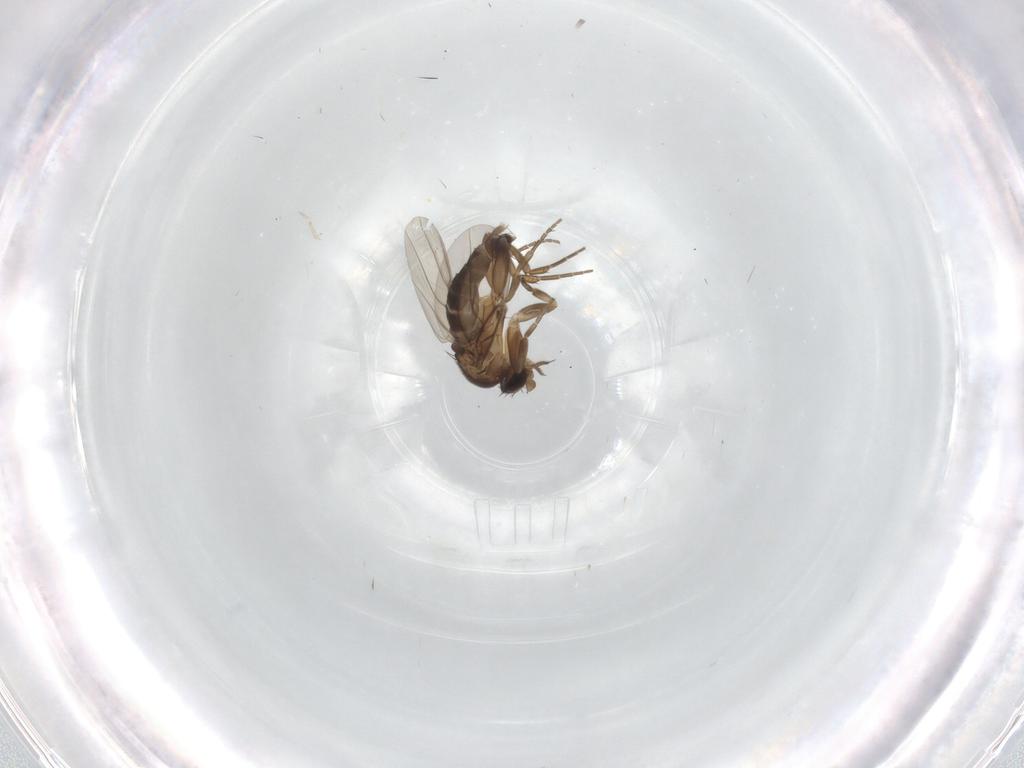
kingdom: Animalia
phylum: Arthropoda
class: Insecta
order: Diptera
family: Phoridae
